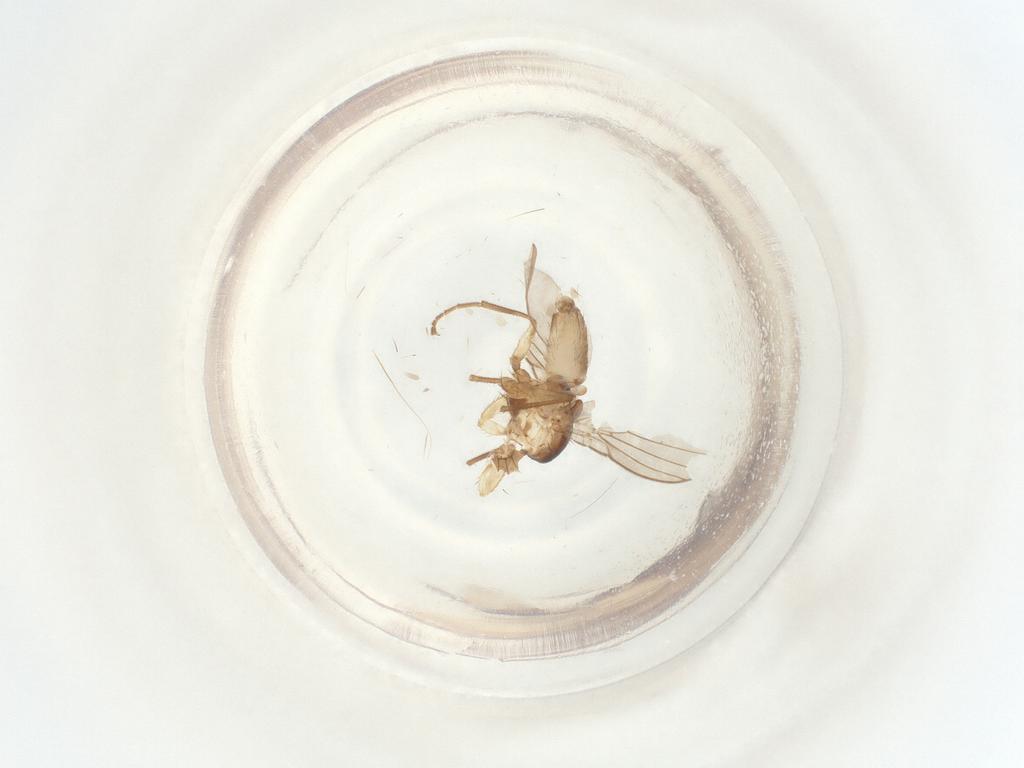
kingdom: Animalia
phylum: Arthropoda
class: Insecta
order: Diptera
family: Agromyzidae
